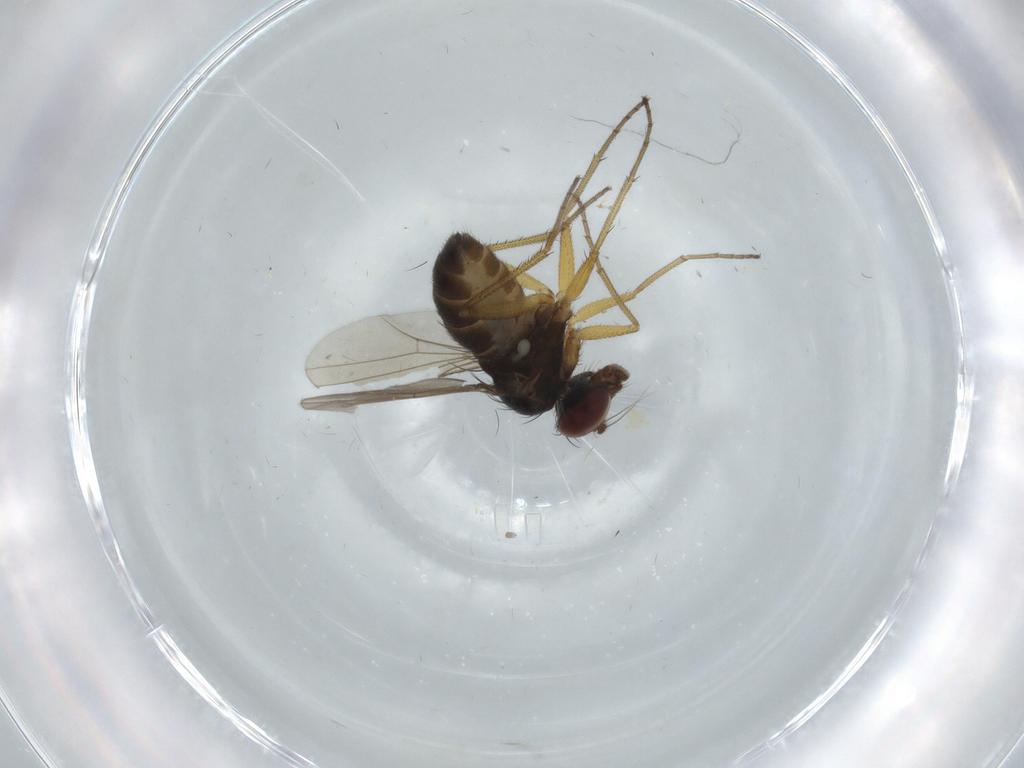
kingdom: Animalia
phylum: Arthropoda
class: Insecta
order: Diptera
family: Dolichopodidae
